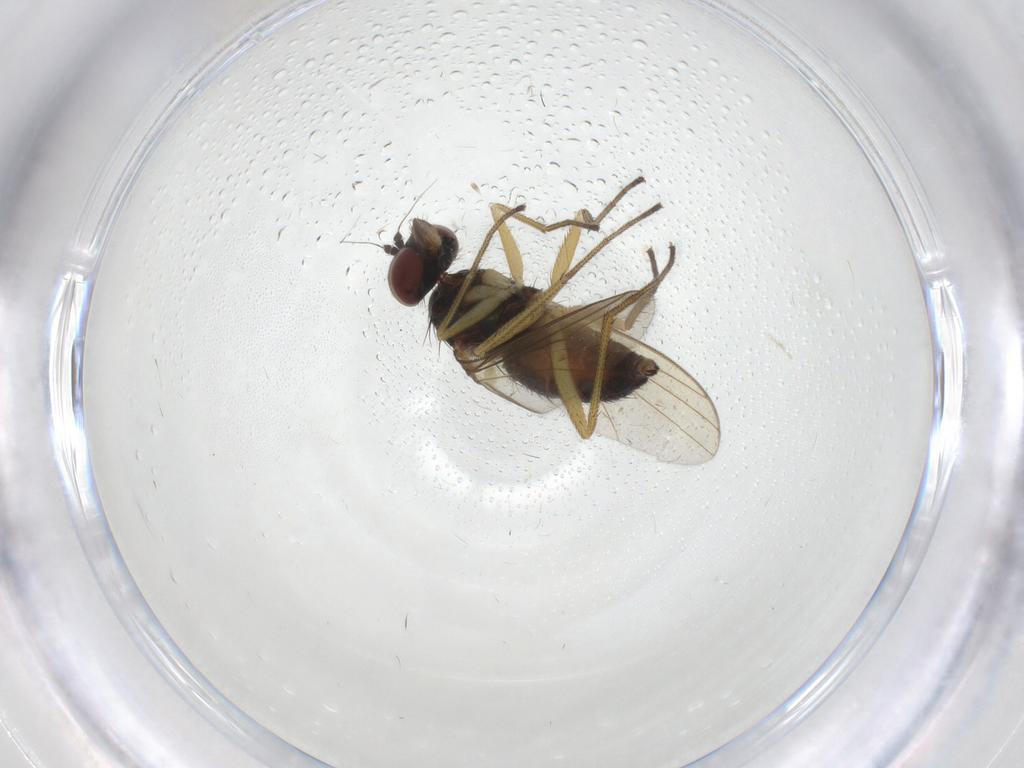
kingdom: Animalia
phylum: Arthropoda
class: Insecta
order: Diptera
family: Dolichopodidae
